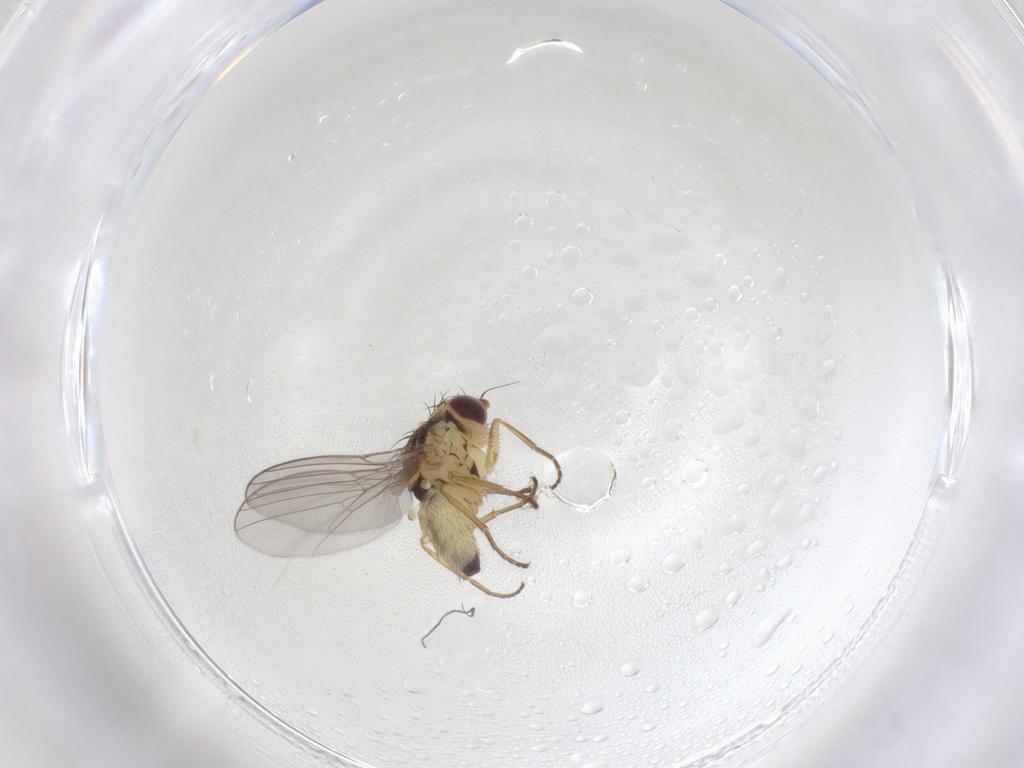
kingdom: Animalia
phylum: Arthropoda
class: Insecta
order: Diptera
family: Agromyzidae
